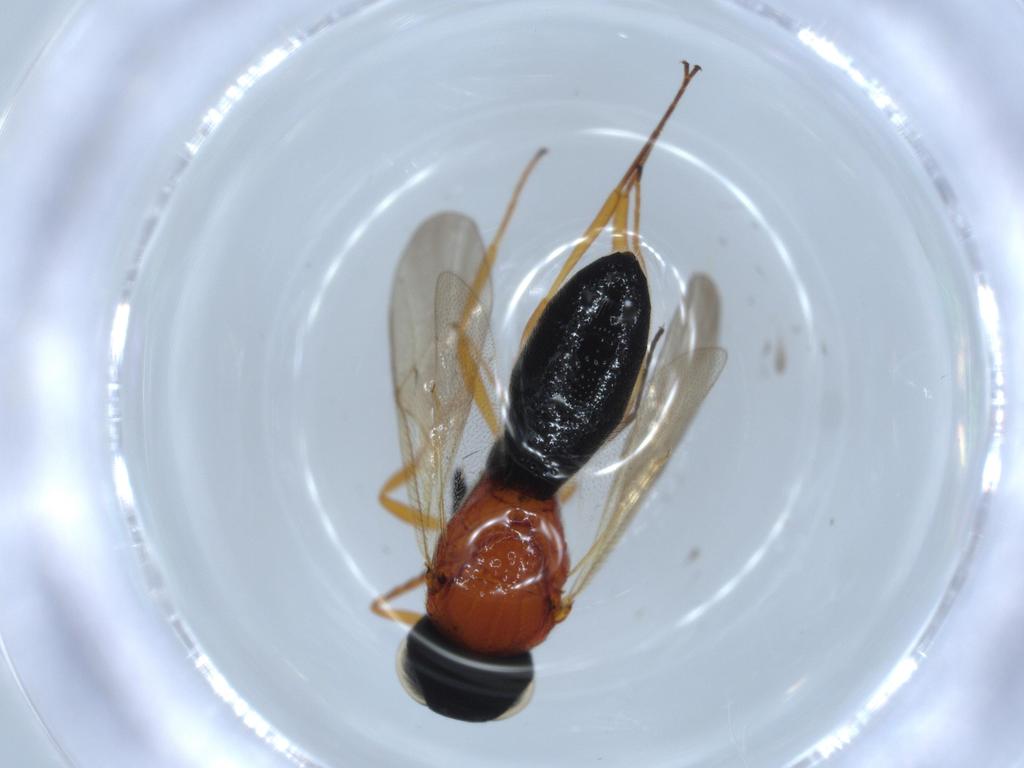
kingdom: Animalia
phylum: Arthropoda
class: Insecta
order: Hymenoptera
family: Scelionidae
